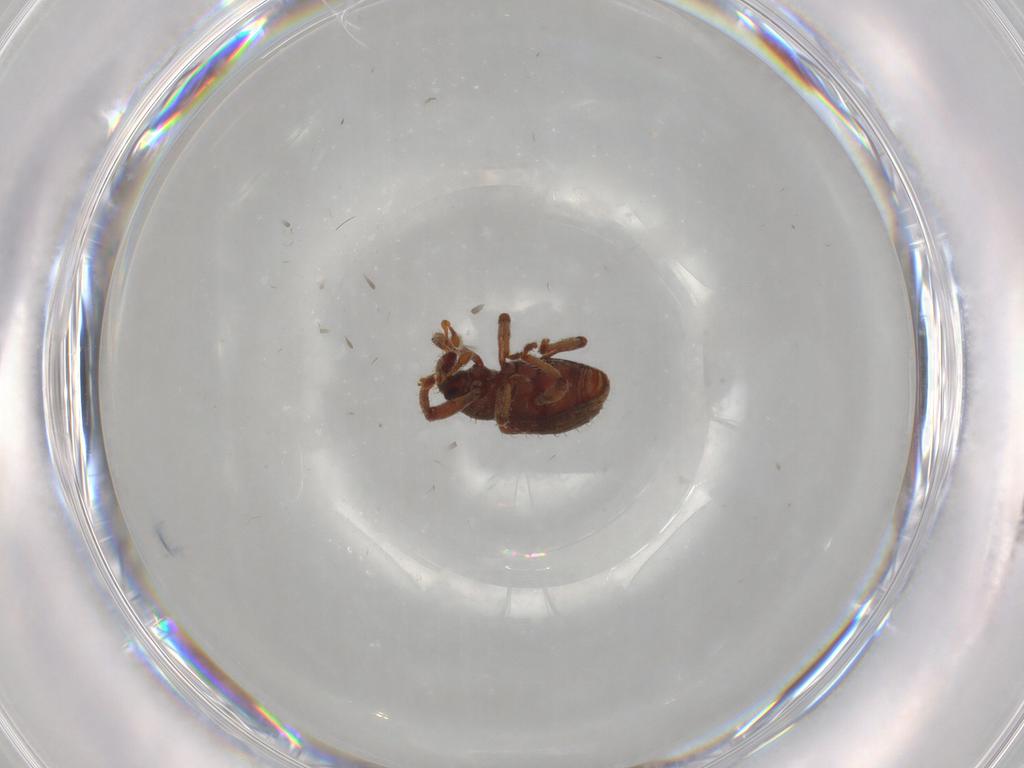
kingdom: Animalia
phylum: Arthropoda
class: Insecta
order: Coleoptera
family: Curculionidae
